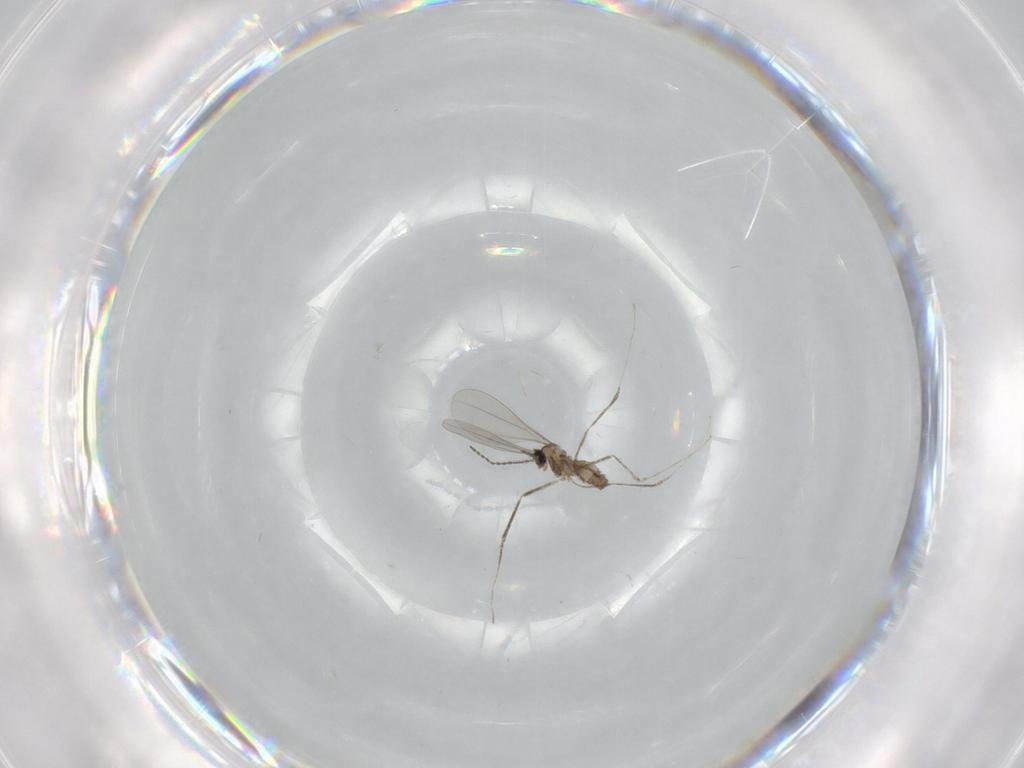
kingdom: Animalia
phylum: Arthropoda
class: Insecta
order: Diptera
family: Cecidomyiidae
